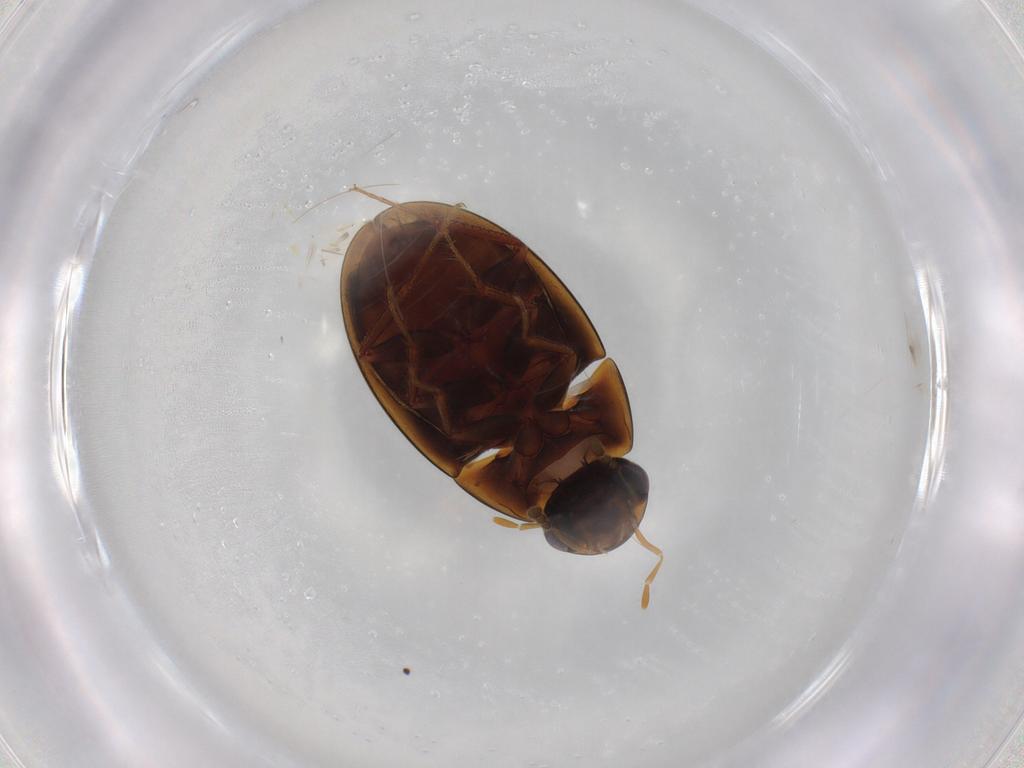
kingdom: Animalia
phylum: Arthropoda
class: Insecta
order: Coleoptera
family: Hydrophilidae
